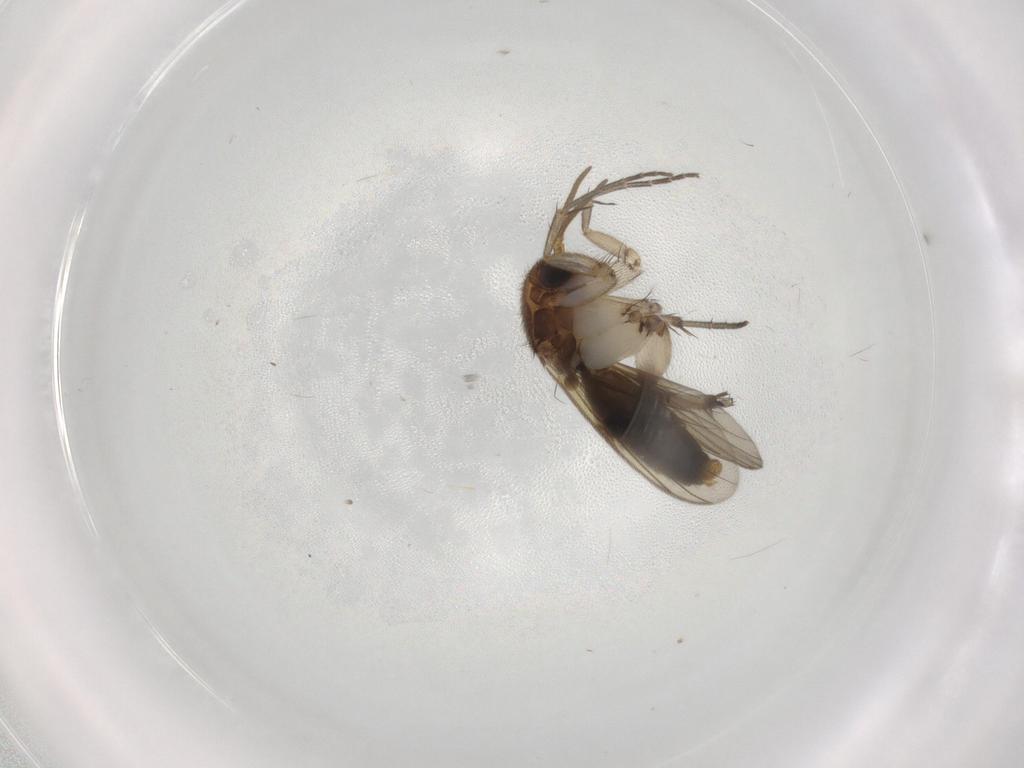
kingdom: Animalia
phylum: Arthropoda
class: Insecta
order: Diptera
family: Mycetophilidae
